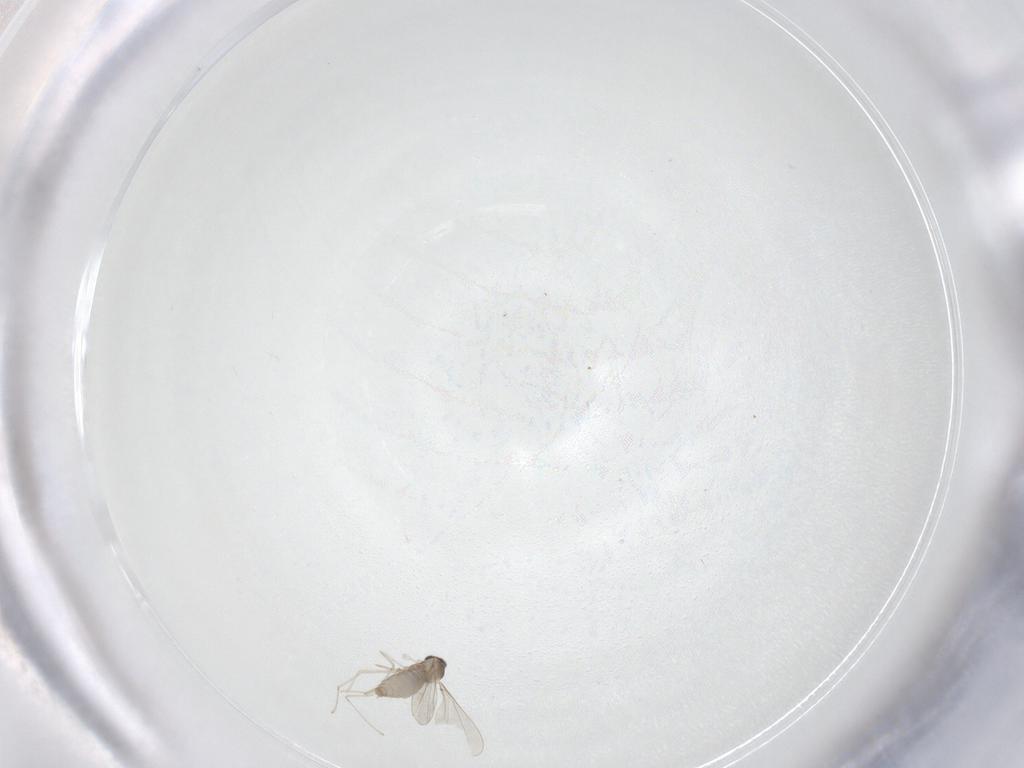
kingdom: Animalia
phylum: Arthropoda
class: Insecta
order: Diptera
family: Cecidomyiidae
